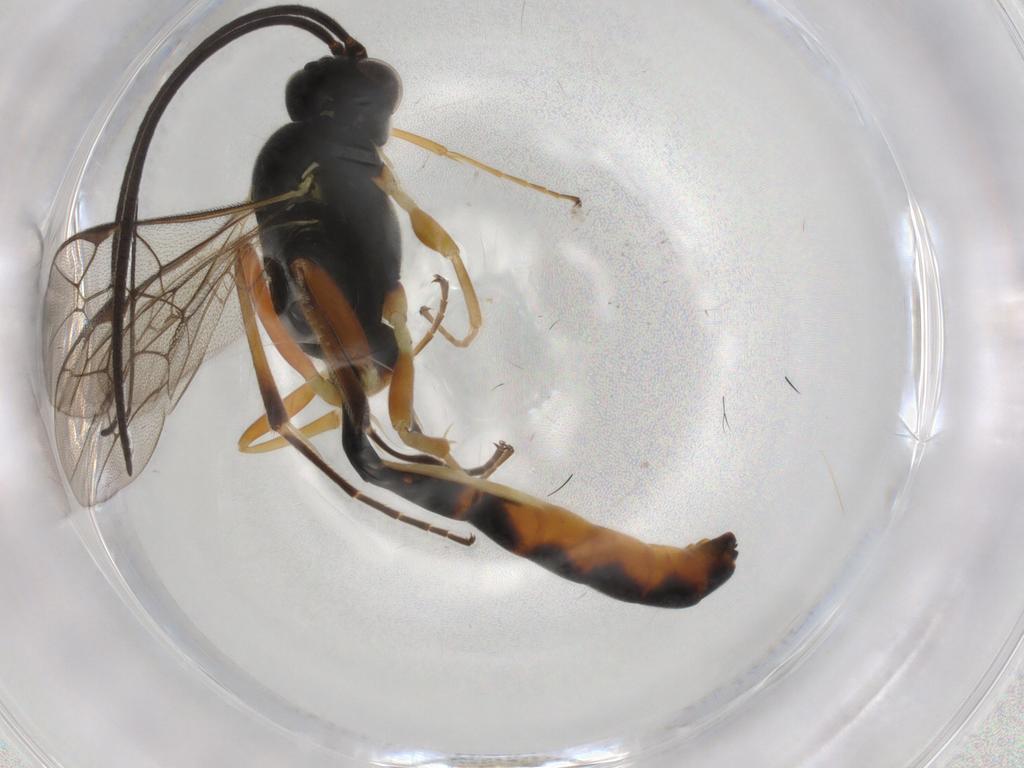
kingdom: Animalia
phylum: Arthropoda
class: Insecta
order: Hymenoptera
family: Ichneumonidae
